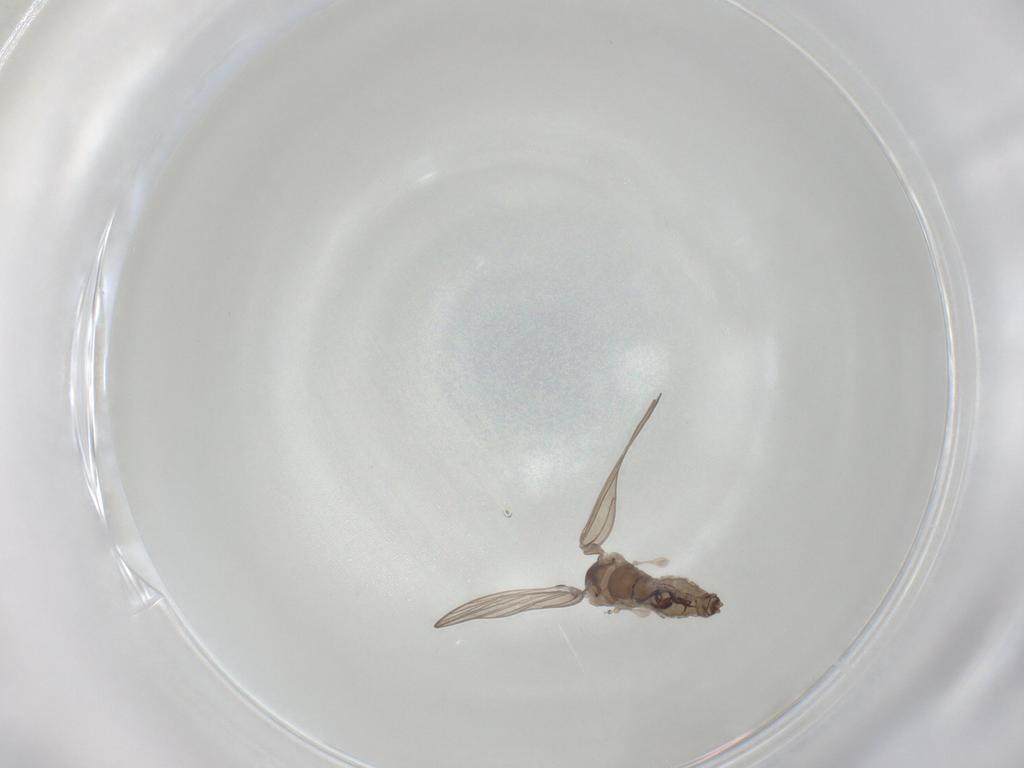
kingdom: Animalia
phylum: Arthropoda
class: Insecta
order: Diptera
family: Psychodidae
